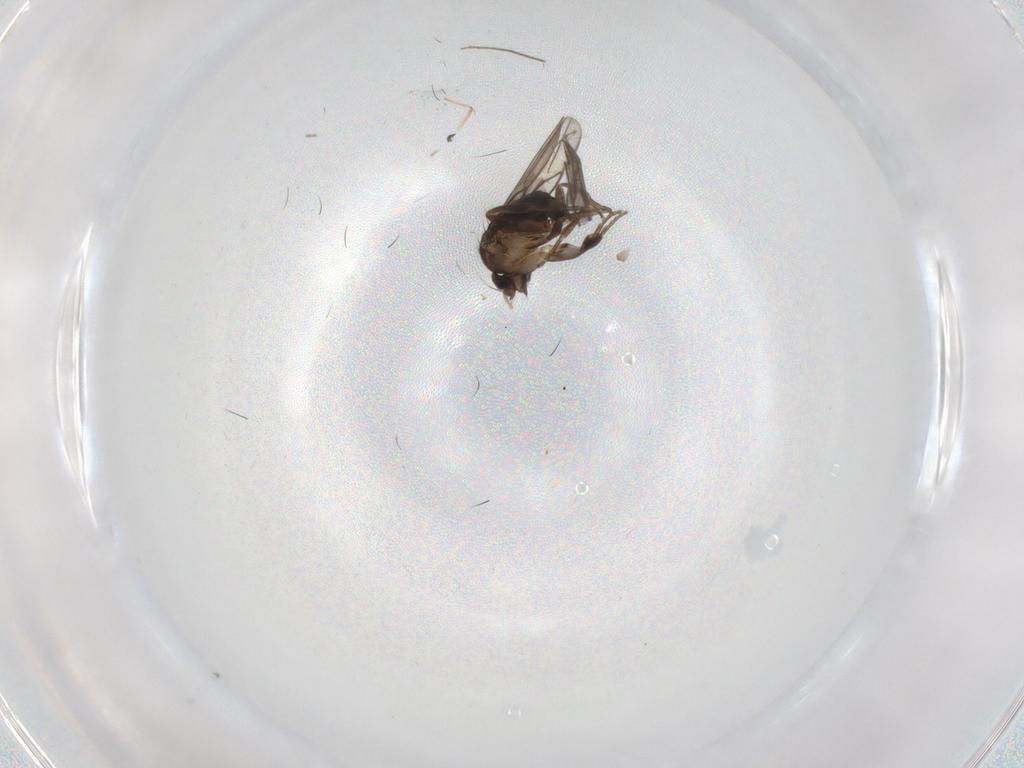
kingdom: Animalia
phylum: Arthropoda
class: Insecta
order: Diptera
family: Phoridae
